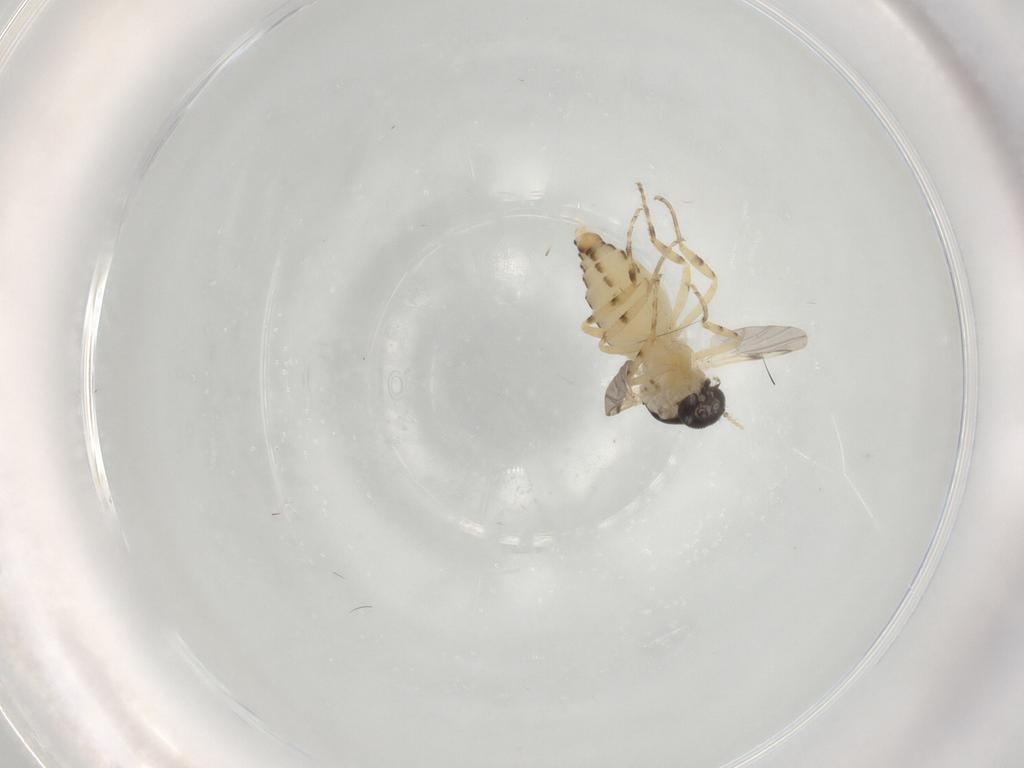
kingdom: Animalia
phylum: Arthropoda
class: Insecta
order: Diptera
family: Ceratopogonidae
